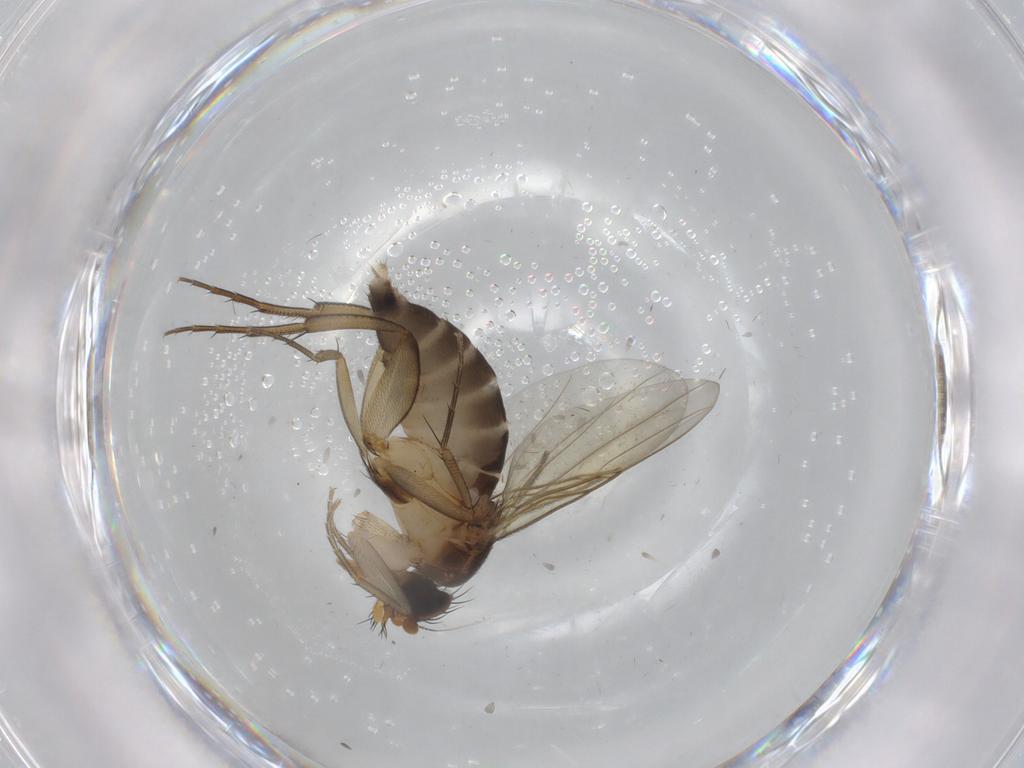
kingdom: Animalia
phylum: Arthropoda
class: Insecta
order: Diptera
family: Phoridae
